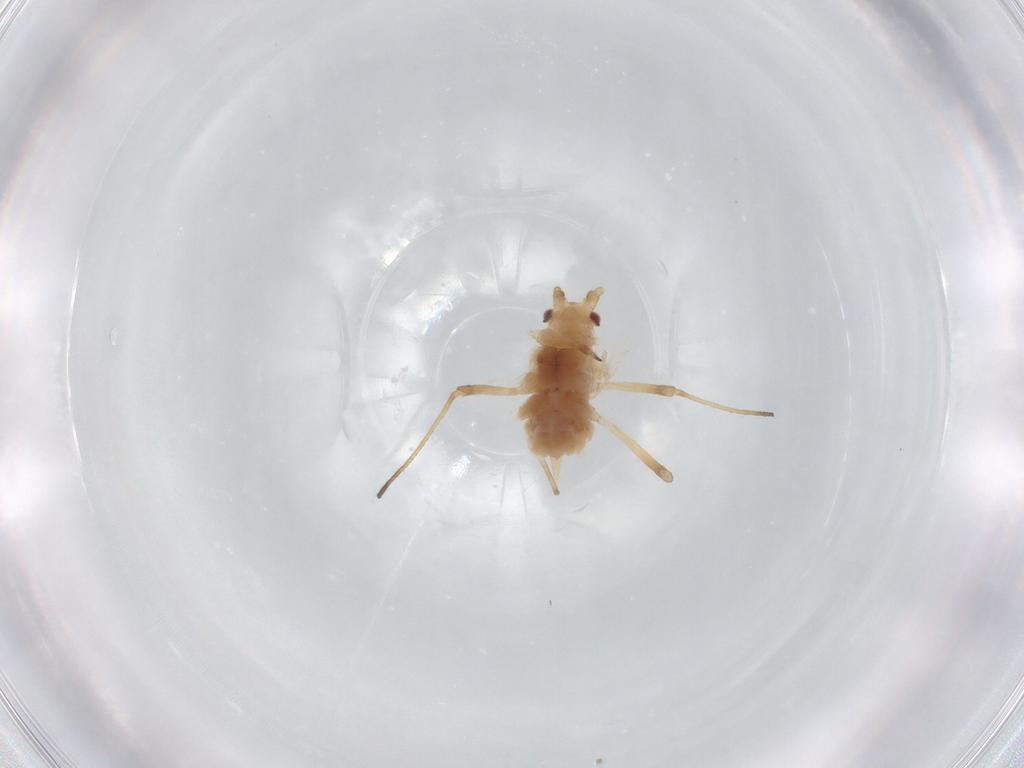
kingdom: Animalia
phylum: Arthropoda
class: Insecta
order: Hemiptera
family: Aphididae
